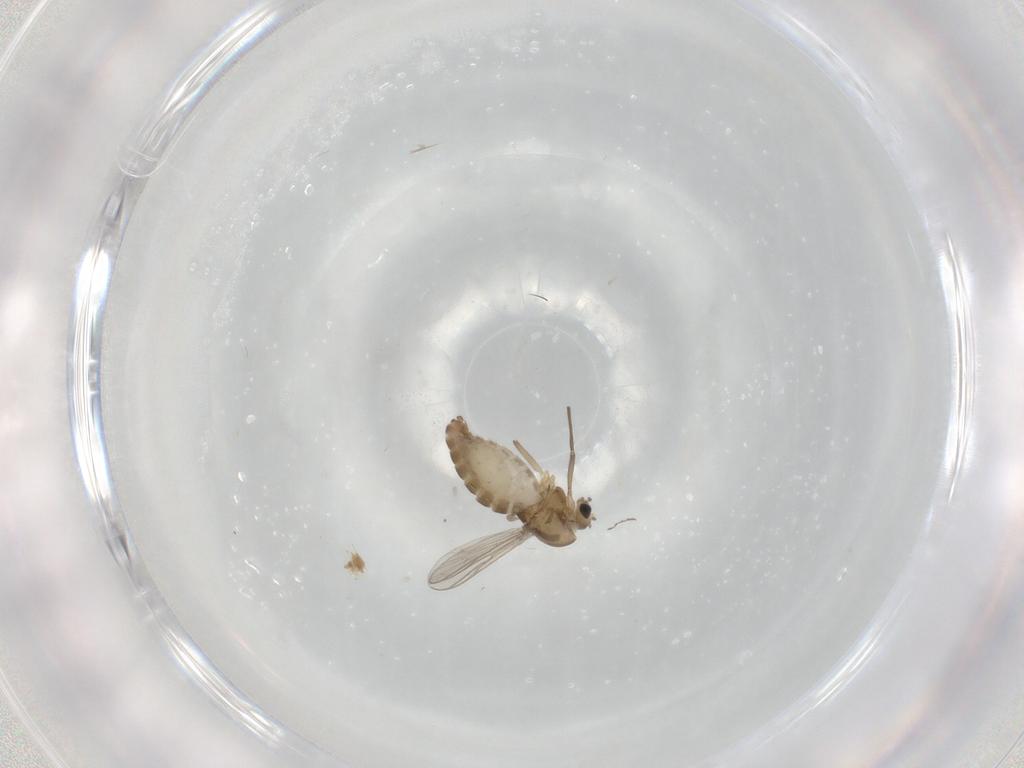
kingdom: Animalia
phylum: Arthropoda
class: Insecta
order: Diptera
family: Chironomidae
